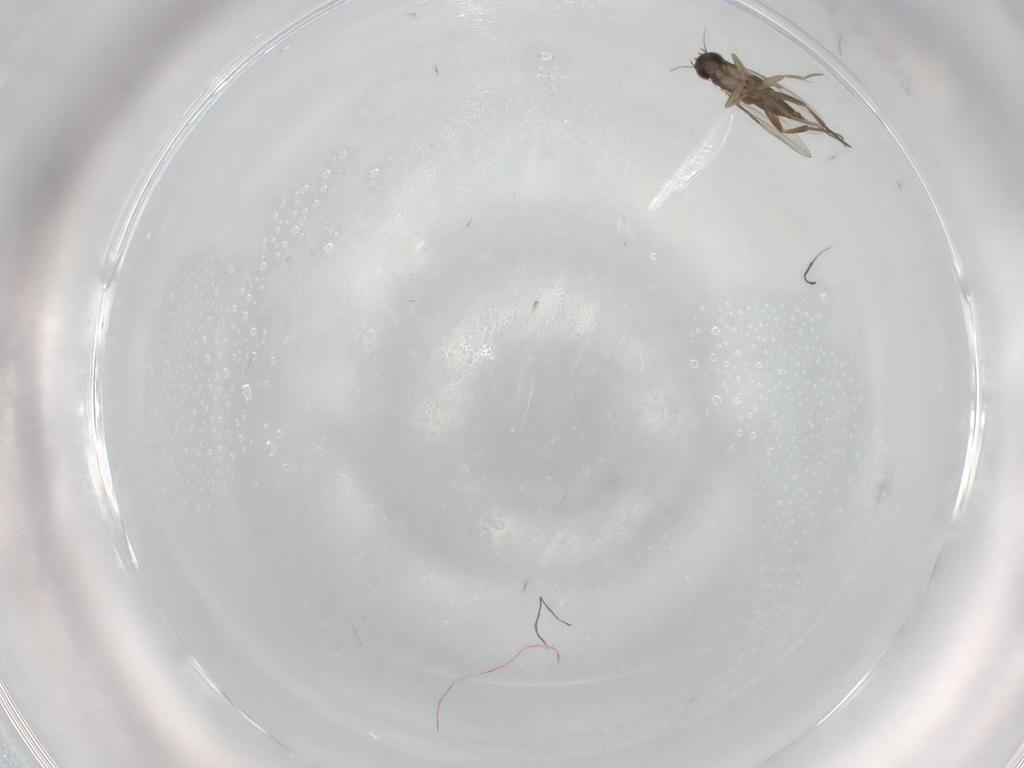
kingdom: Animalia
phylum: Arthropoda
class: Insecta
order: Diptera
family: Phoridae
